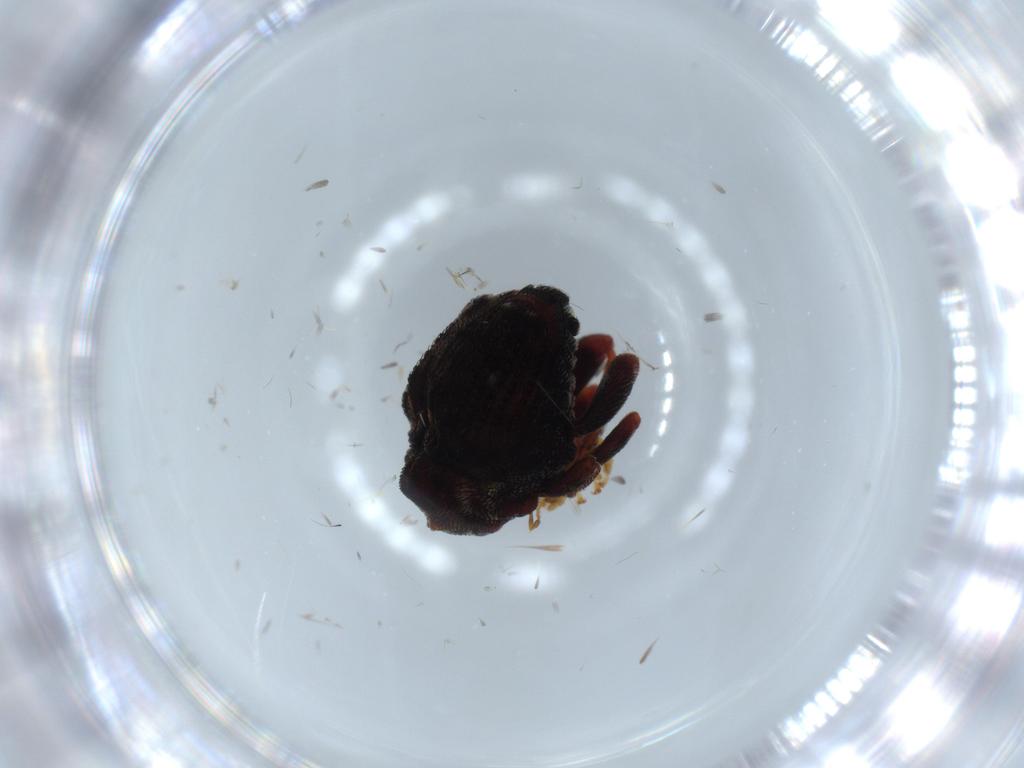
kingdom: Animalia
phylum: Arthropoda
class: Insecta
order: Coleoptera
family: Curculionidae
